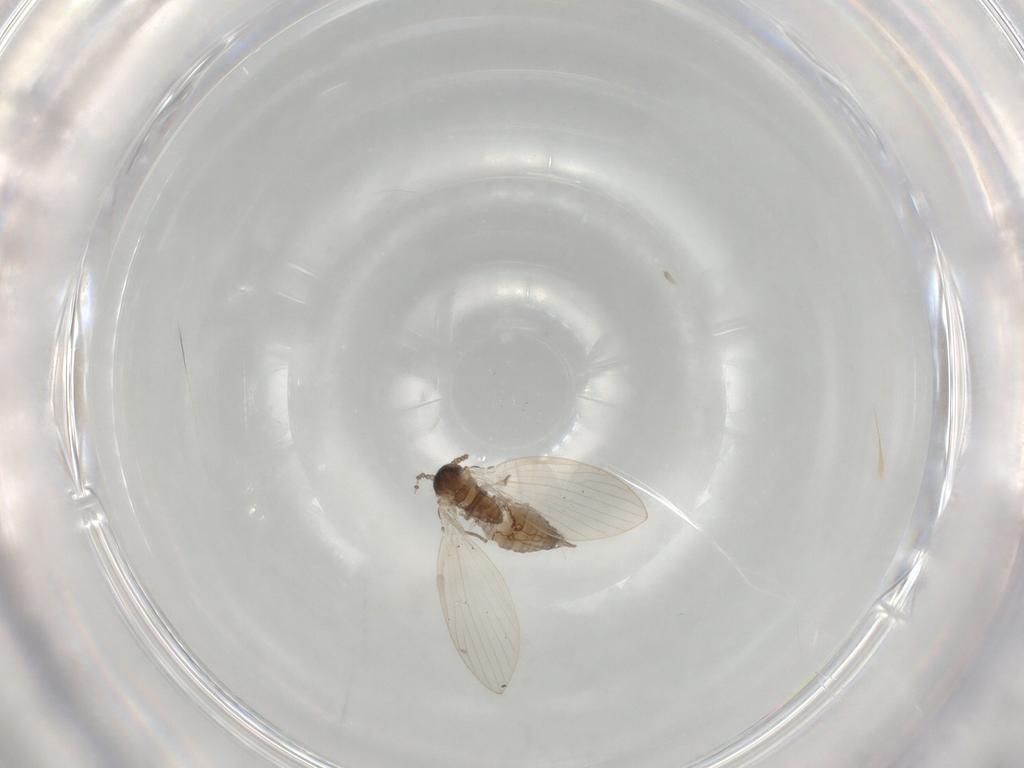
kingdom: Animalia
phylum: Arthropoda
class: Insecta
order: Diptera
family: Psychodidae
